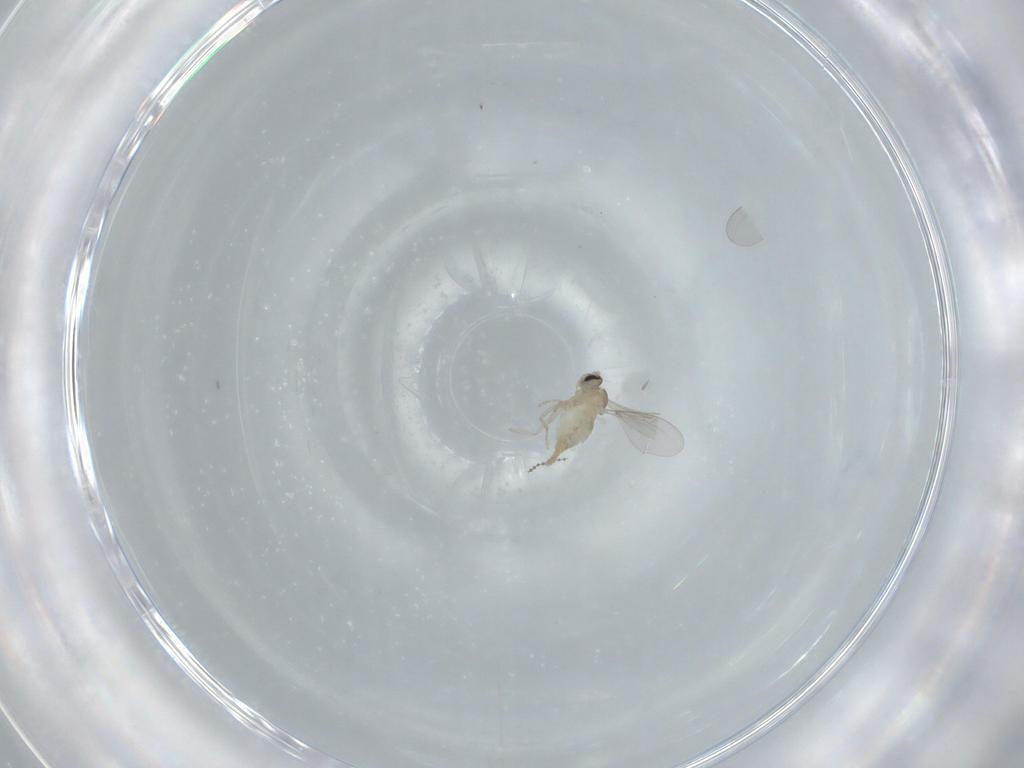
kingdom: Animalia
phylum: Arthropoda
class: Insecta
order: Diptera
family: Cecidomyiidae
